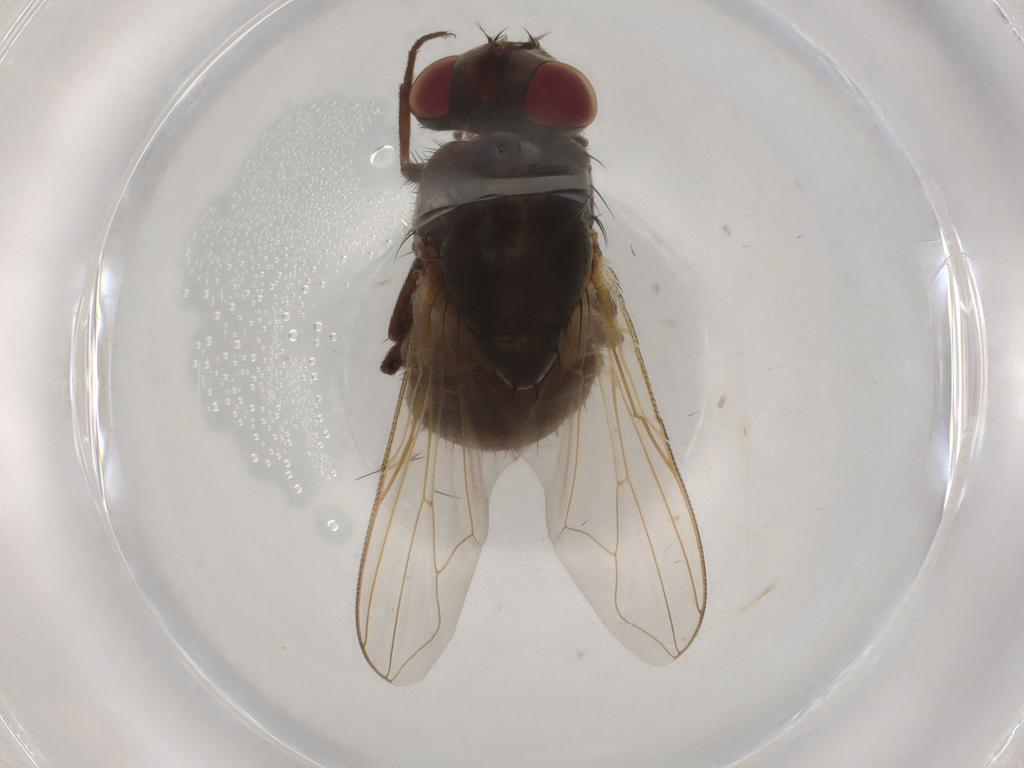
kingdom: Animalia
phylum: Arthropoda
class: Insecta
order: Diptera
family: Muscidae
